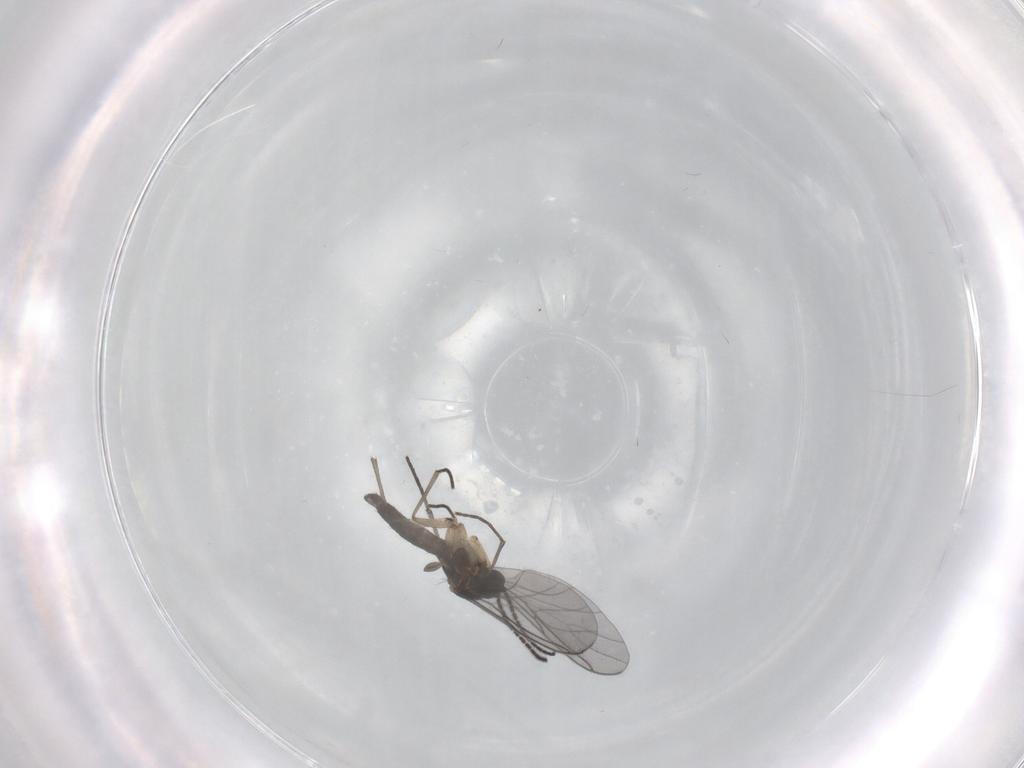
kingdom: Animalia
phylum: Arthropoda
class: Insecta
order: Diptera
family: Sciaridae
